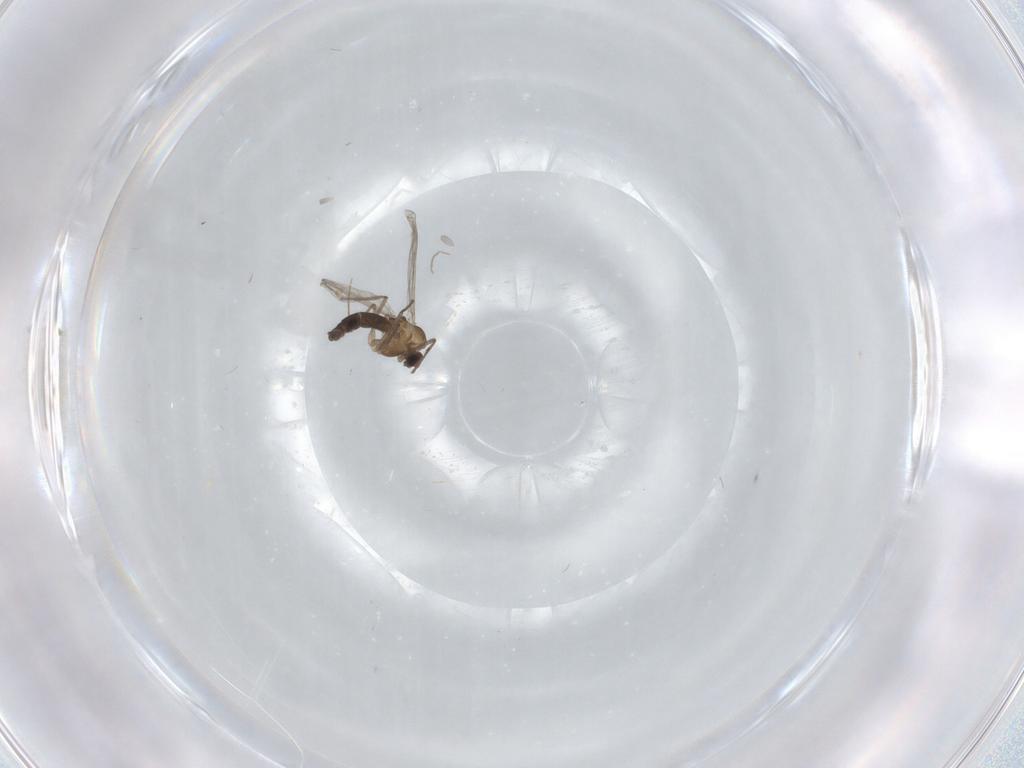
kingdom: Animalia
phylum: Arthropoda
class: Insecta
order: Diptera
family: Chironomidae
